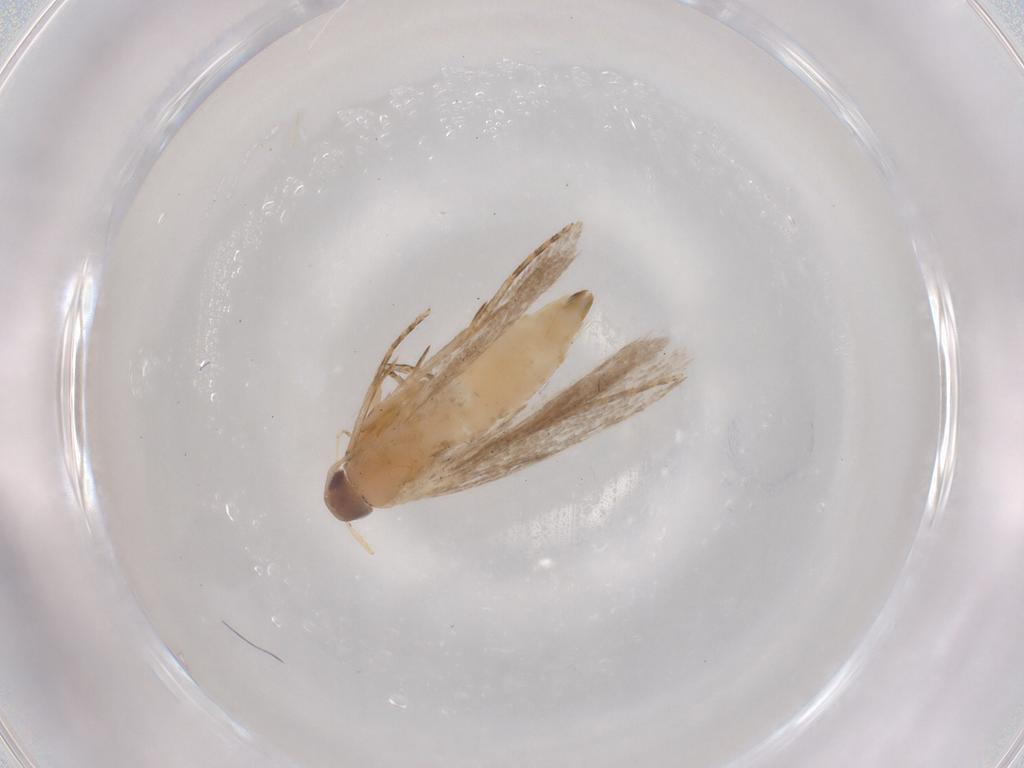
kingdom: Animalia
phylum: Arthropoda
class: Insecta
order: Lepidoptera
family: Gelechiidae
